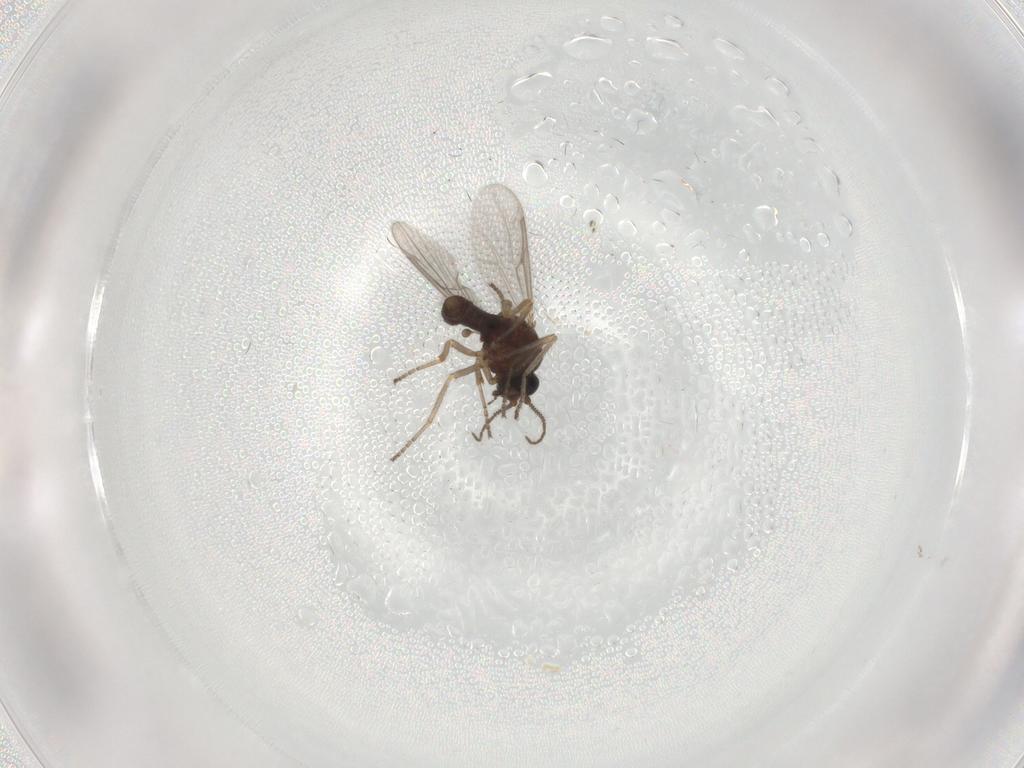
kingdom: Animalia
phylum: Arthropoda
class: Insecta
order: Diptera
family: Ceratopogonidae
